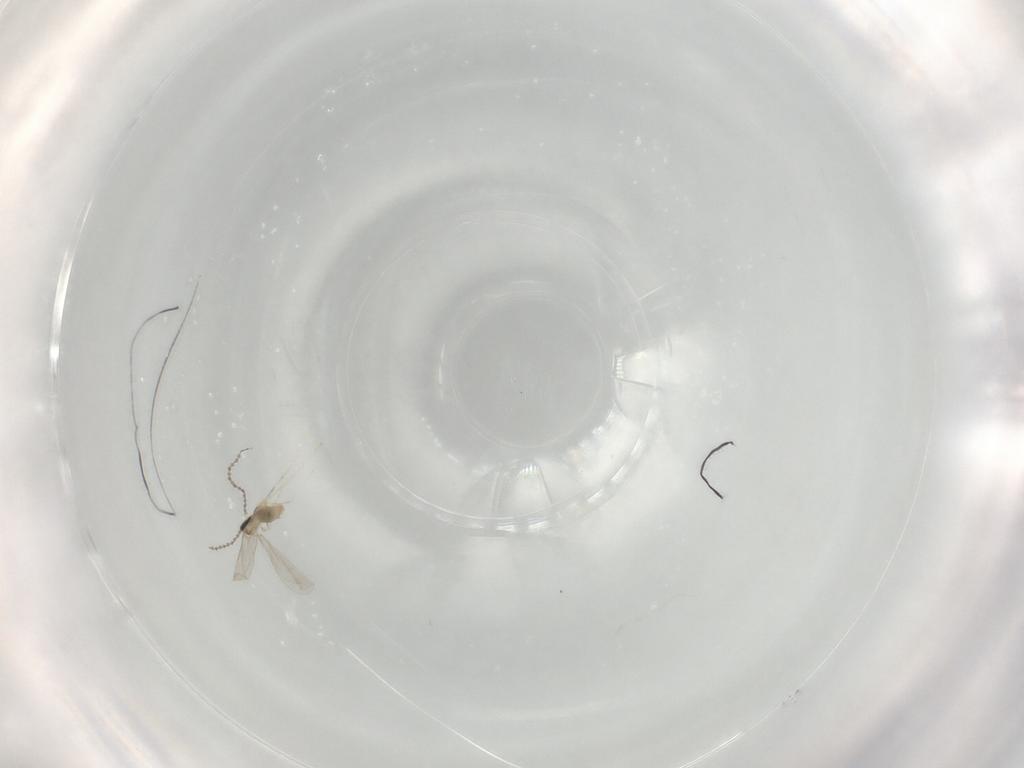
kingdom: Animalia
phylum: Arthropoda
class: Insecta
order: Diptera
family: Cecidomyiidae
